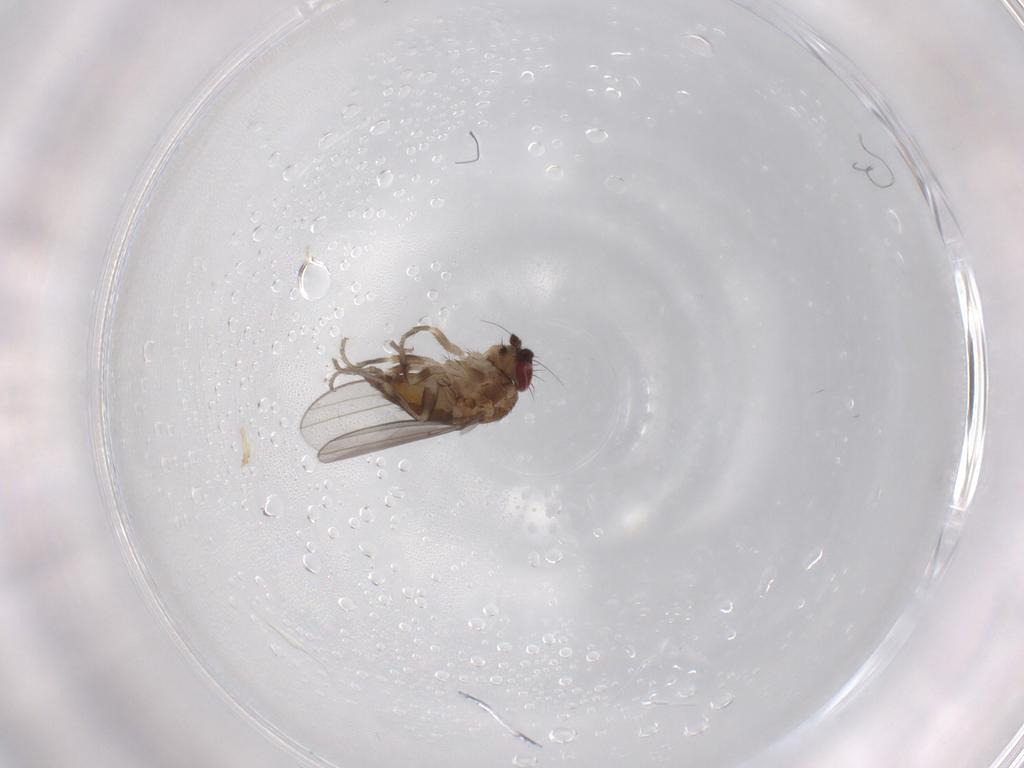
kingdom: Animalia
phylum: Arthropoda
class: Insecta
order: Diptera
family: Milichiidae
